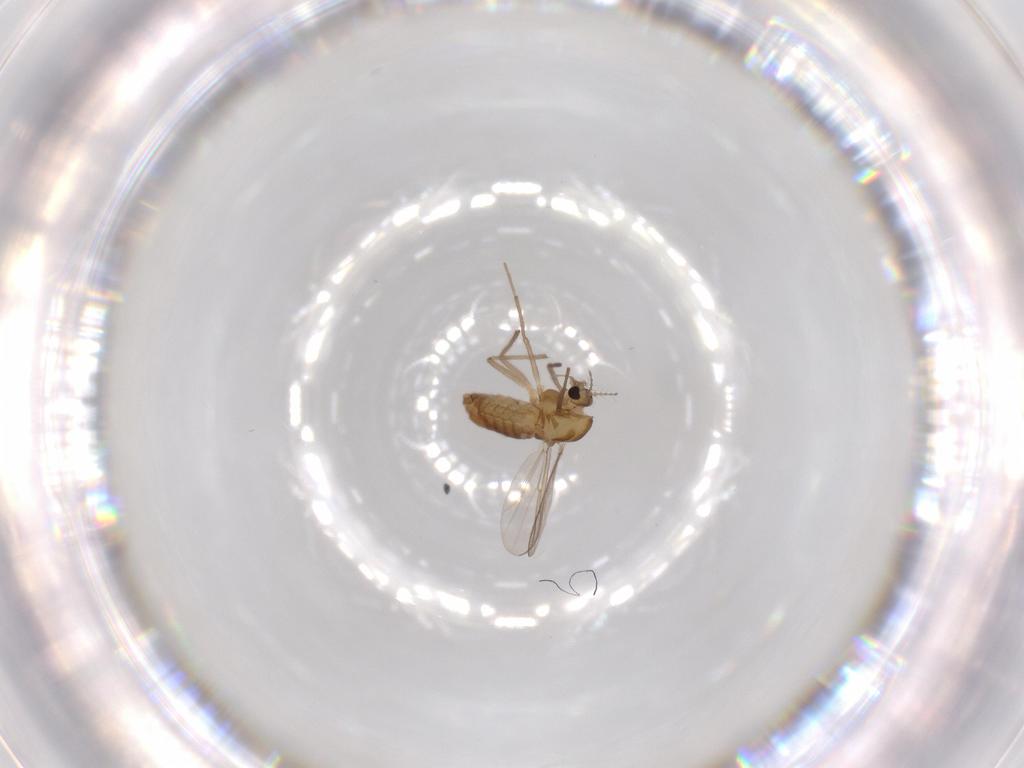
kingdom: Animalia
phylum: Arthropoda
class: Insecta
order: Diptera
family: Chironomidae
